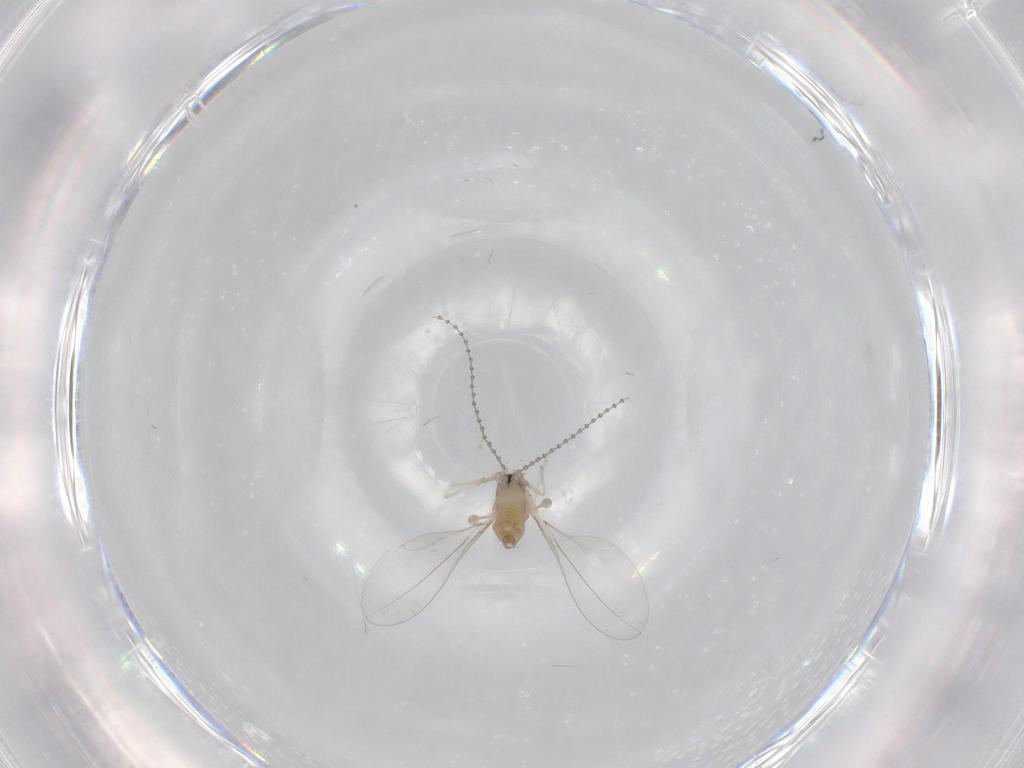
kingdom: Animalia
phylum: Arthropoda
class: Insecta
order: Diptera
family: Cecidomyiidae
